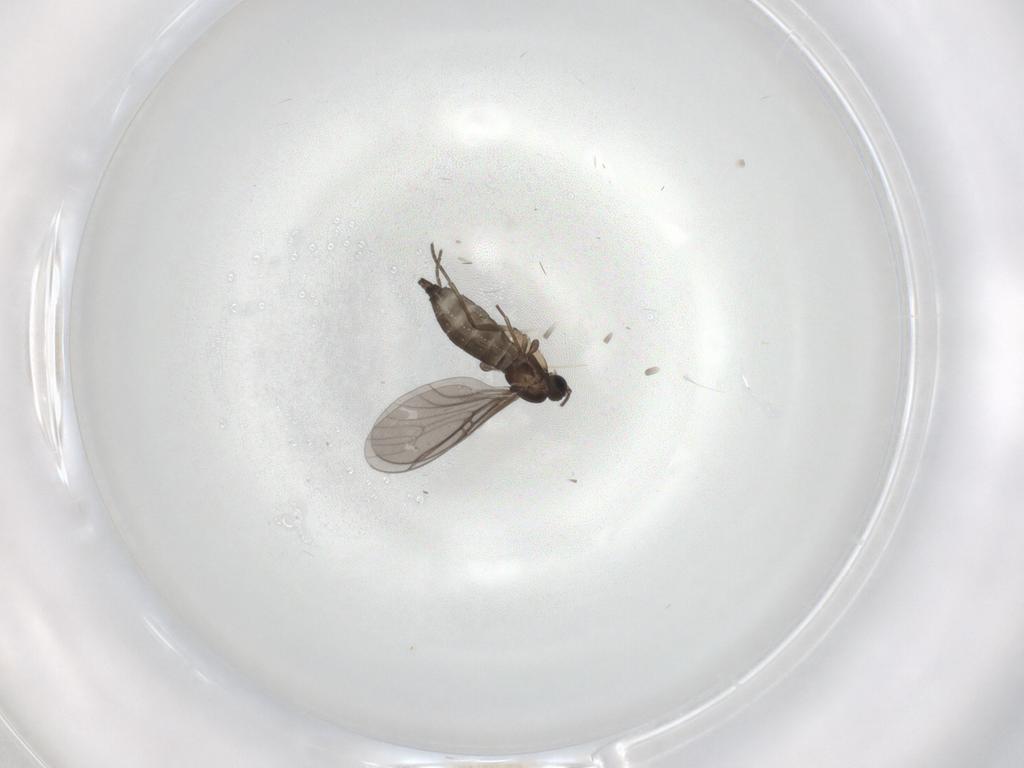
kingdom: Animalia
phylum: Arthropoda
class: Insecta
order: Diptera
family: Sciaridae
